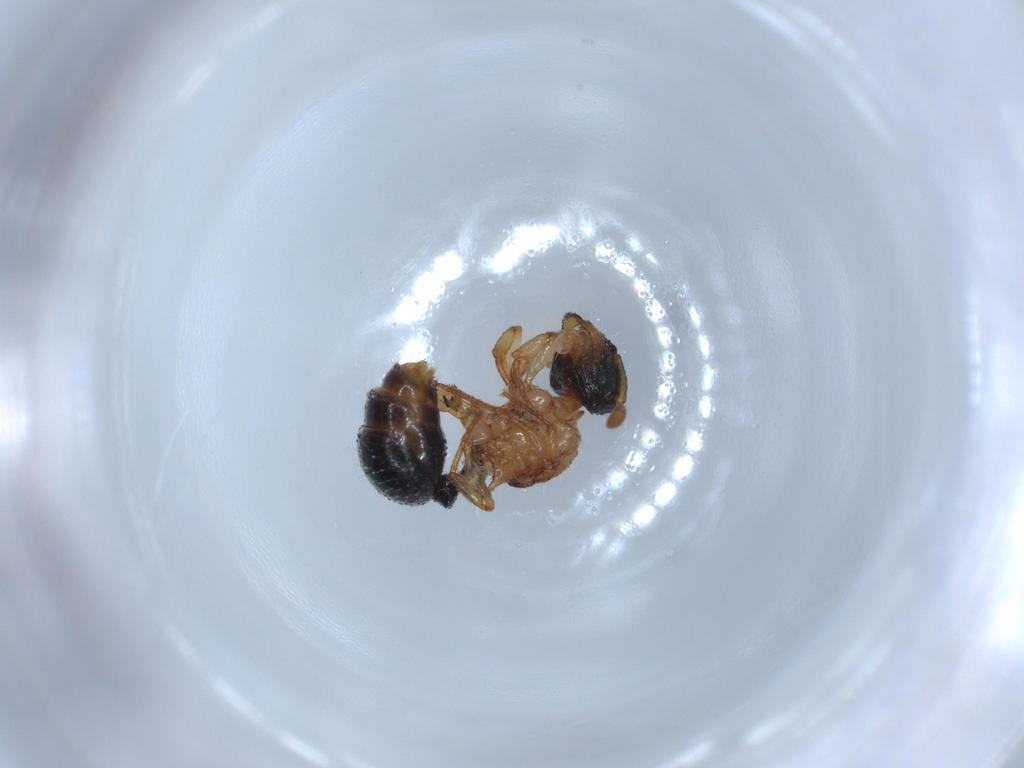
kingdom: Animalia
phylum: Arthropoda
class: Insecta
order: Hymenoptera
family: Bethylidae
